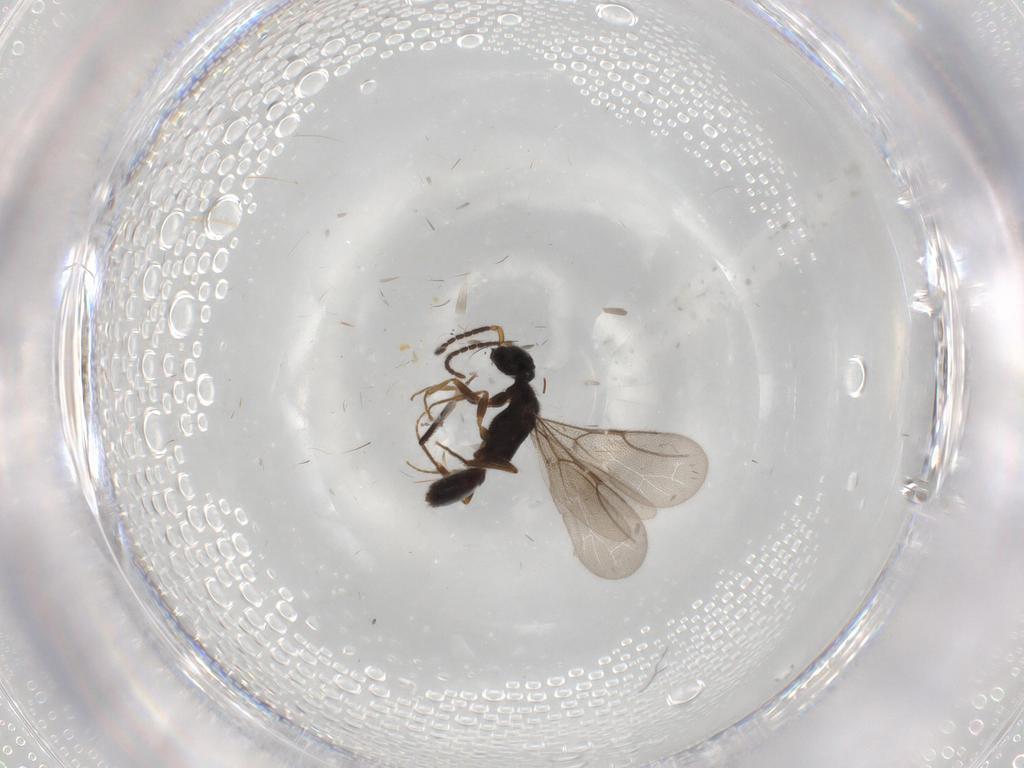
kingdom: Animalia
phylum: Arthropoda
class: Insecta
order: Hymenoptera
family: Bethylidae
